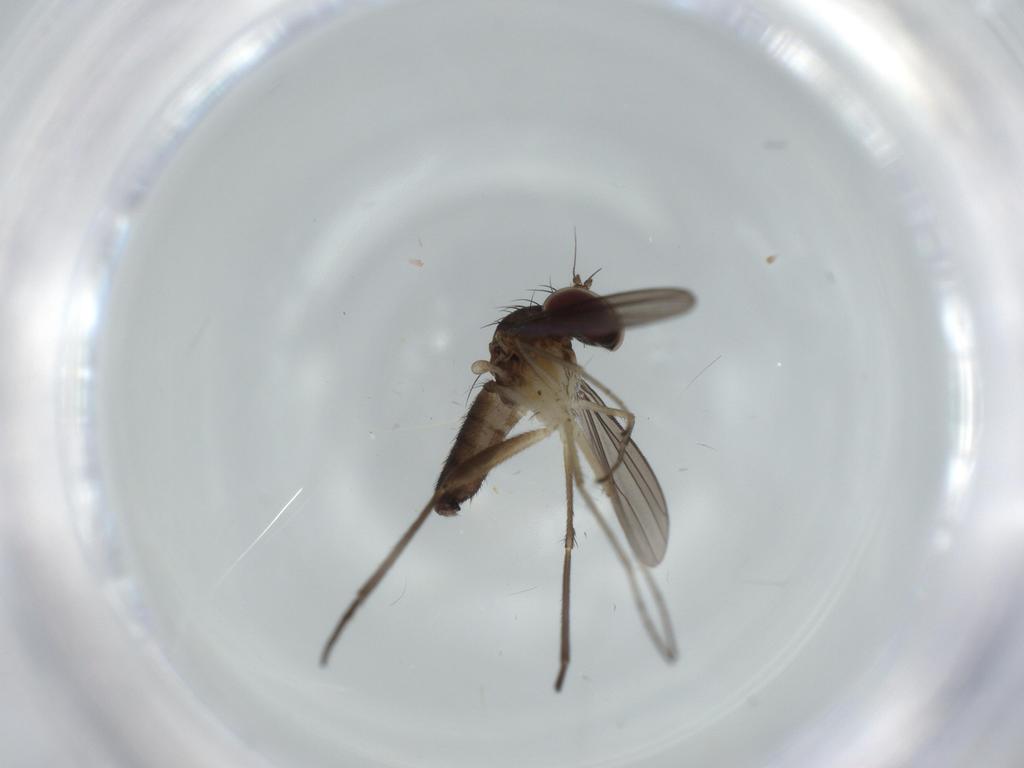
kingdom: Animalia
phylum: Arthropoda
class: Insecta
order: Diptera
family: Dolichopodidae
